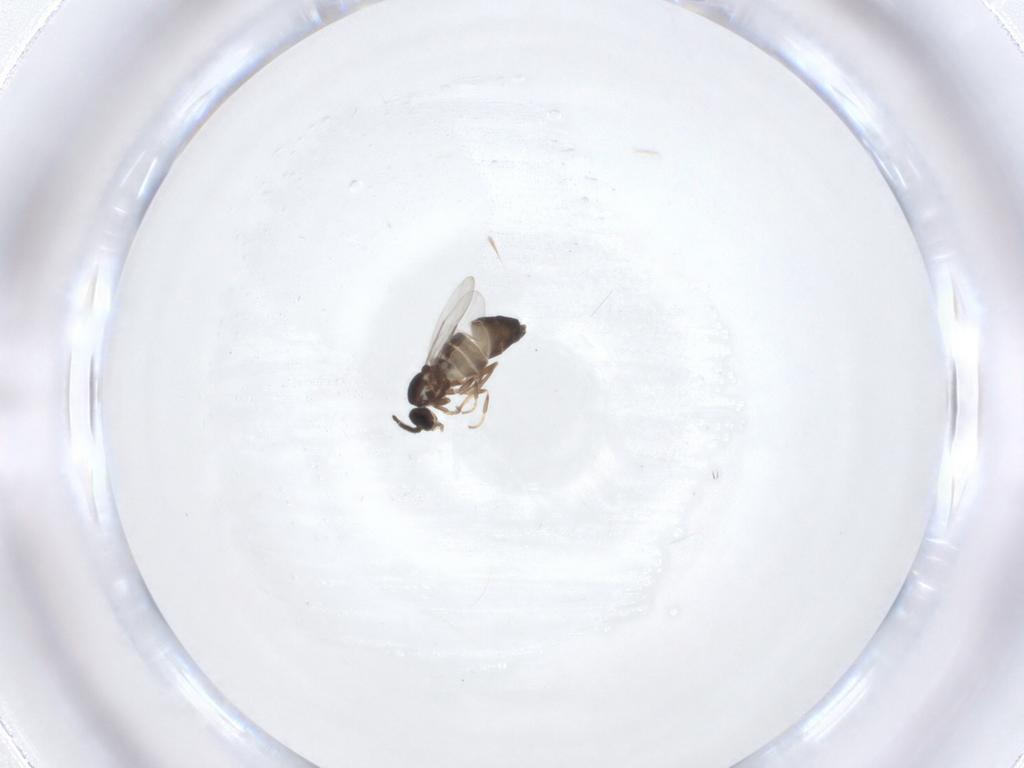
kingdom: Animalia
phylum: Arthropoda
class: Insecta
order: Diptera
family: Scatopsidae
